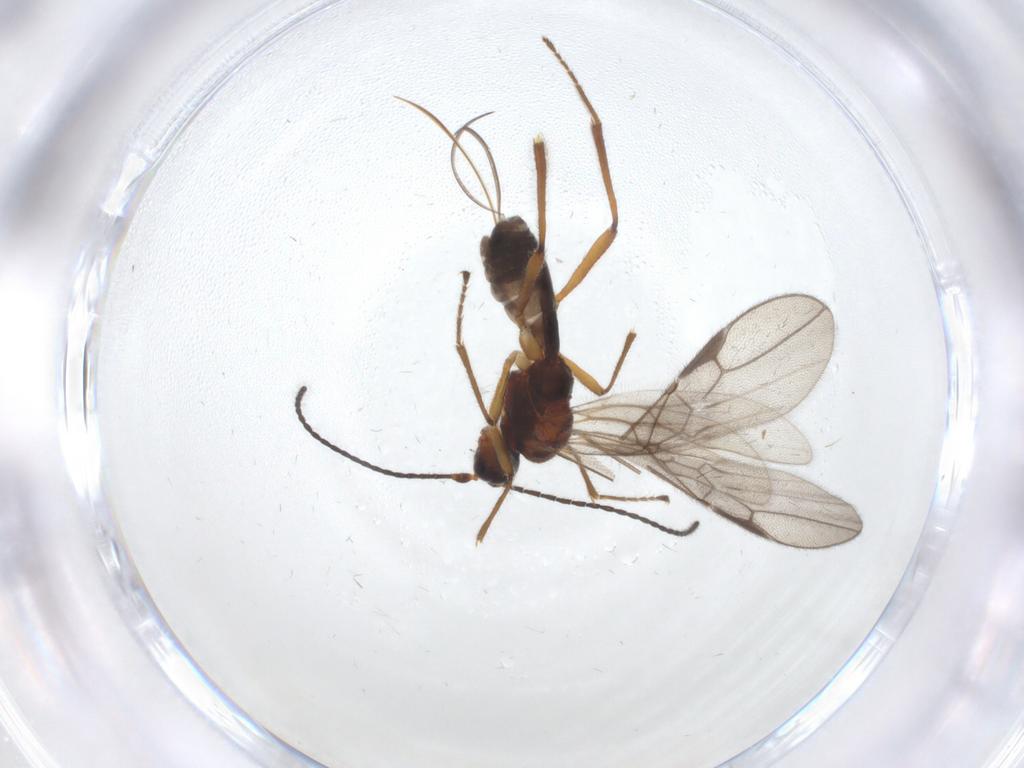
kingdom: Animalia
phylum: Arthropoda
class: Insecta
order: Hymenoptera
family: Braconidae
